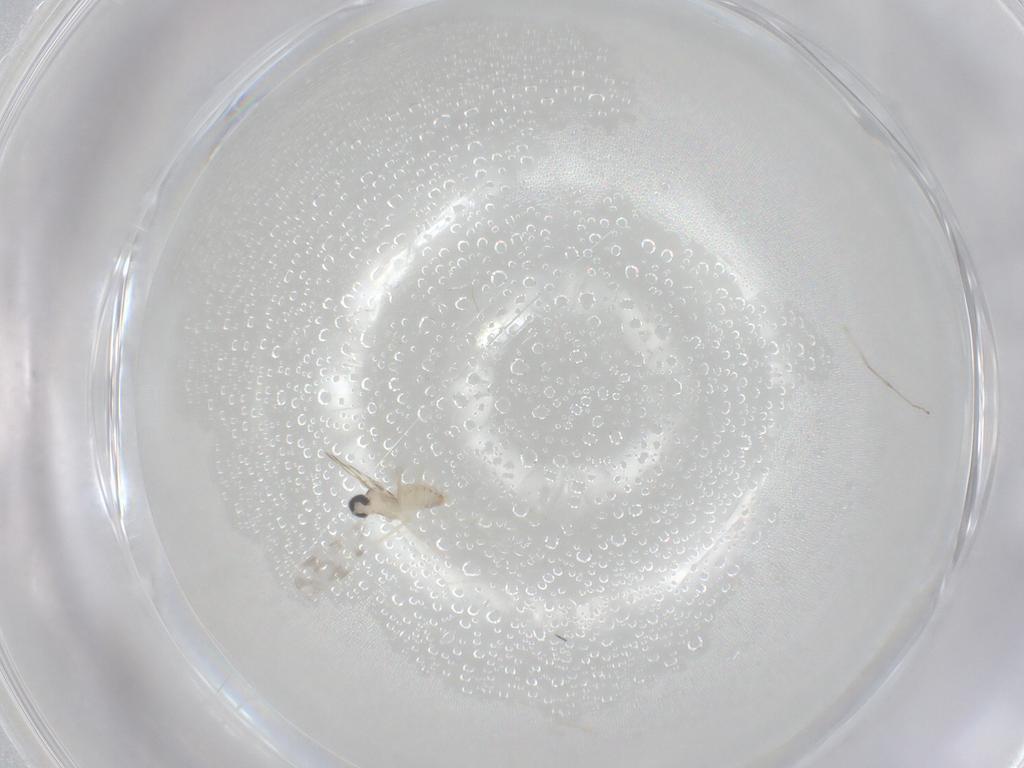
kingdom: Animalia
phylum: Arthropoda
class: Insecta
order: Diptera
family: Cecidomyiidae
